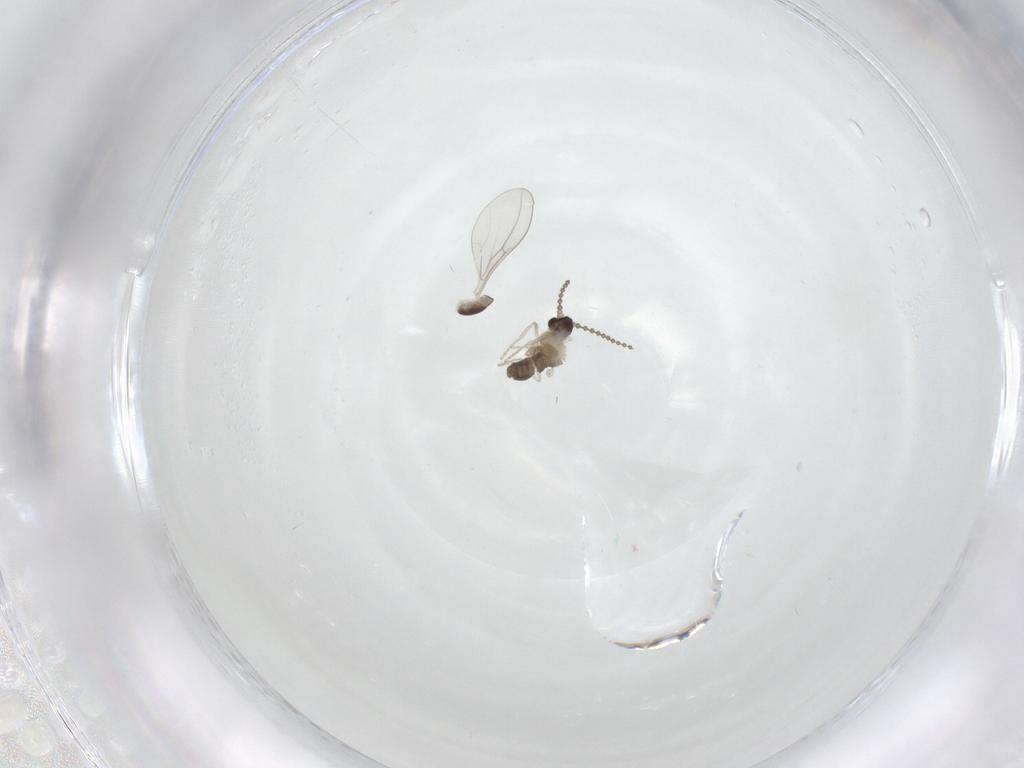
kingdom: Animalia
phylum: Arthropoda
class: Insecta
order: Diptera
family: Cecidomyiidae
